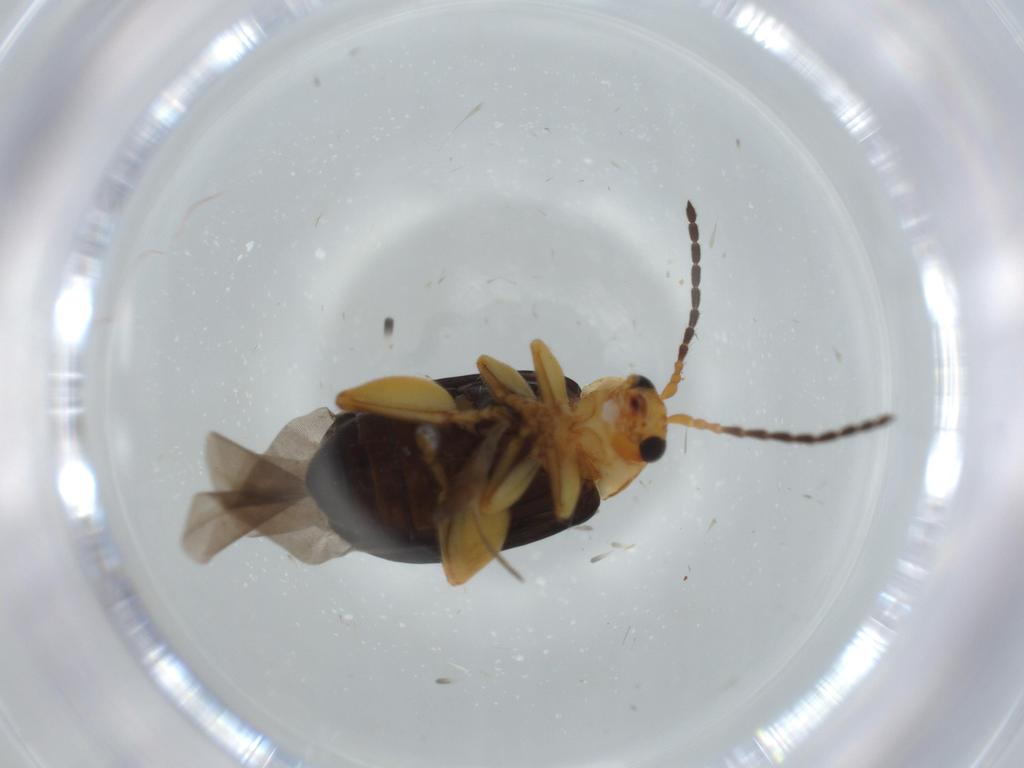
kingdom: Animalia
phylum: Arthropoda
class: Insecta
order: Coleoptera
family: Chrysomelidae
